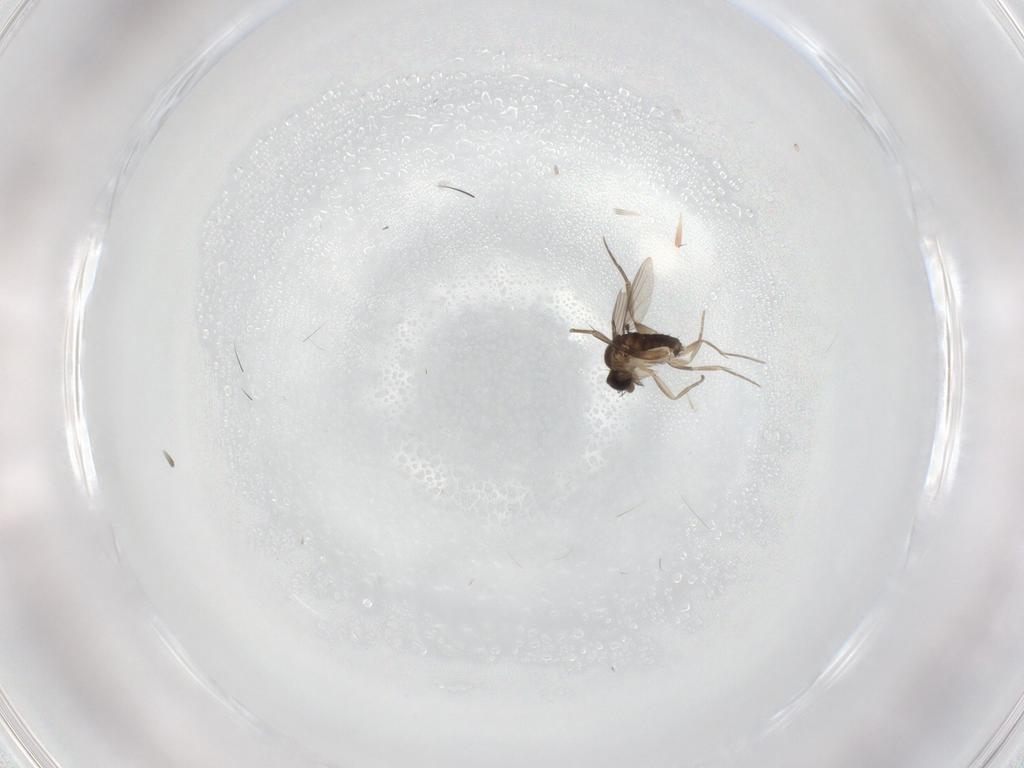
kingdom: Animalia
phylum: Arthropoda
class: Insecta
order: Diptera
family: Ceratopogonidae
